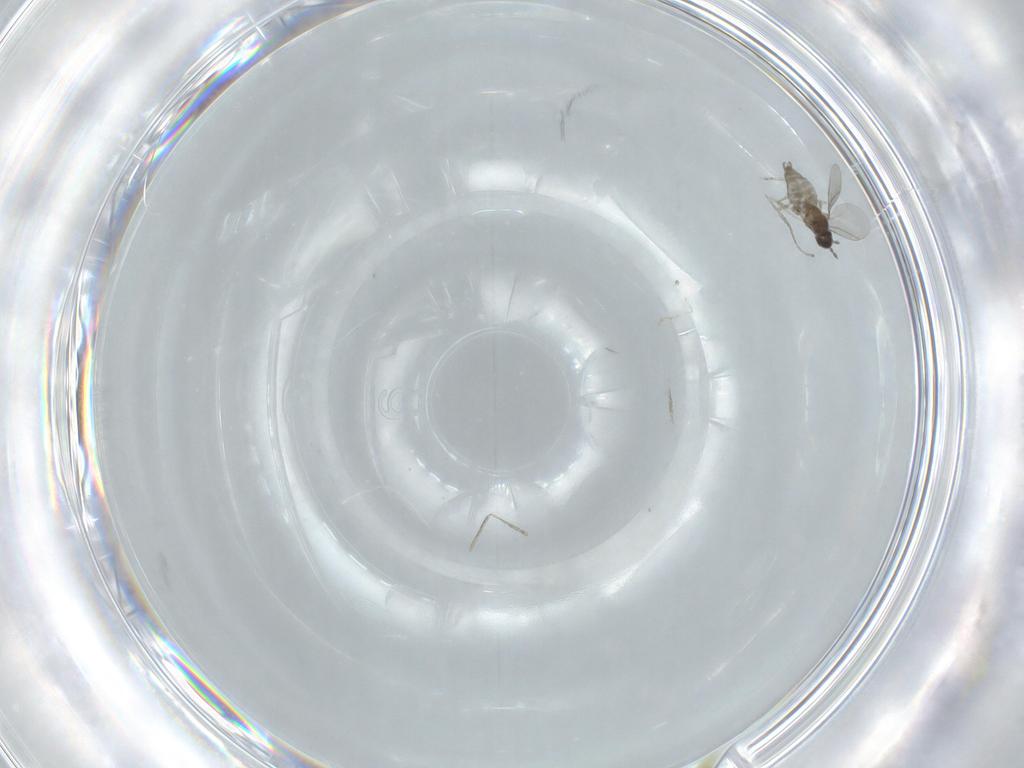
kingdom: Animalia
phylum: Arthropoda
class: Insecta
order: Diptera
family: Cecidomyiidae
